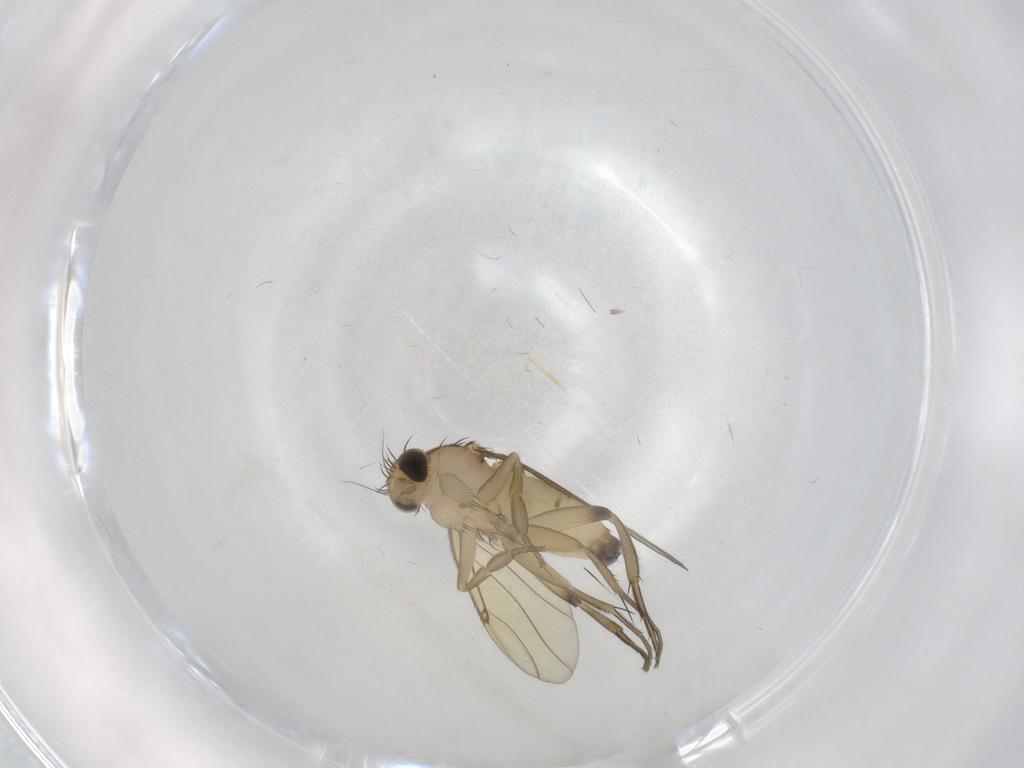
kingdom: Animalia
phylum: Arthropoda
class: Insecta
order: Diptera
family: Phoridae
